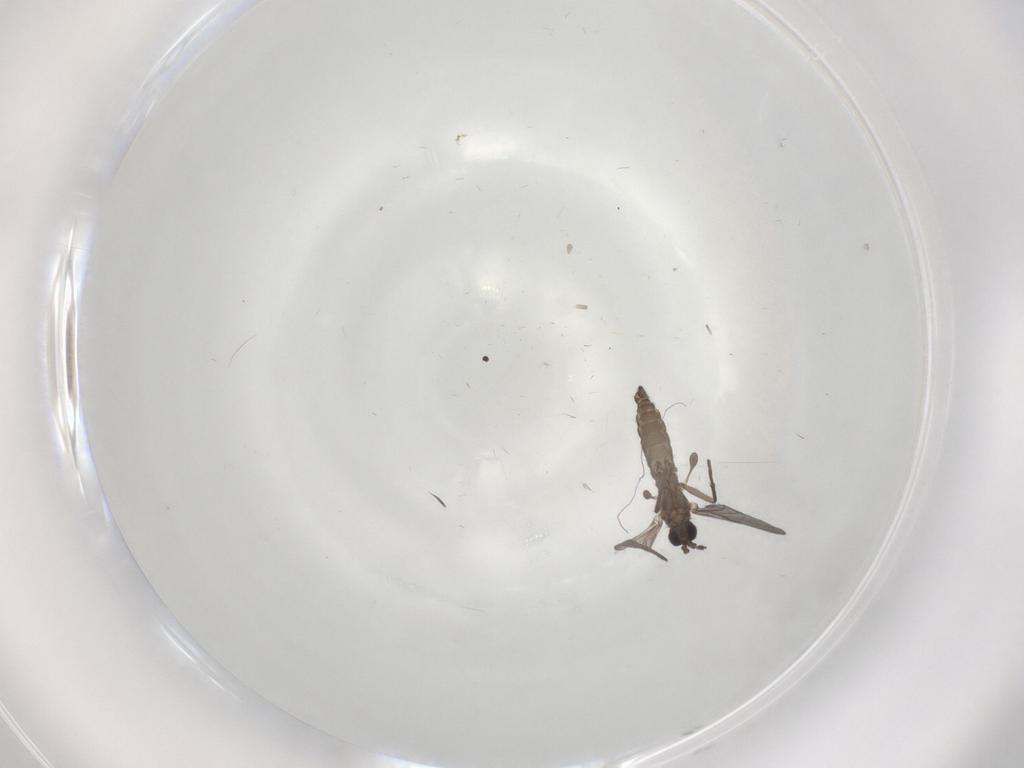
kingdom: Animalia
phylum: Arthropoda
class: Insecta
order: Diptera
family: Sciaridae
